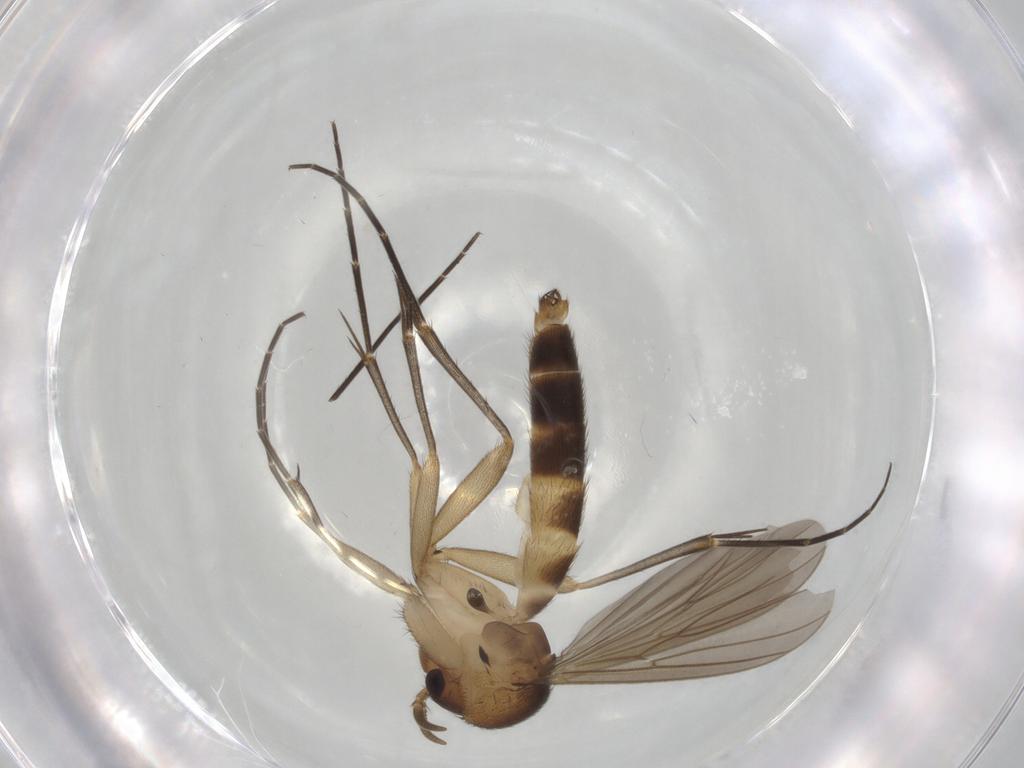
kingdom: Animalia
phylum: Arthropoda
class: Insecta
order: Diptera
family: Mycetophilidae
